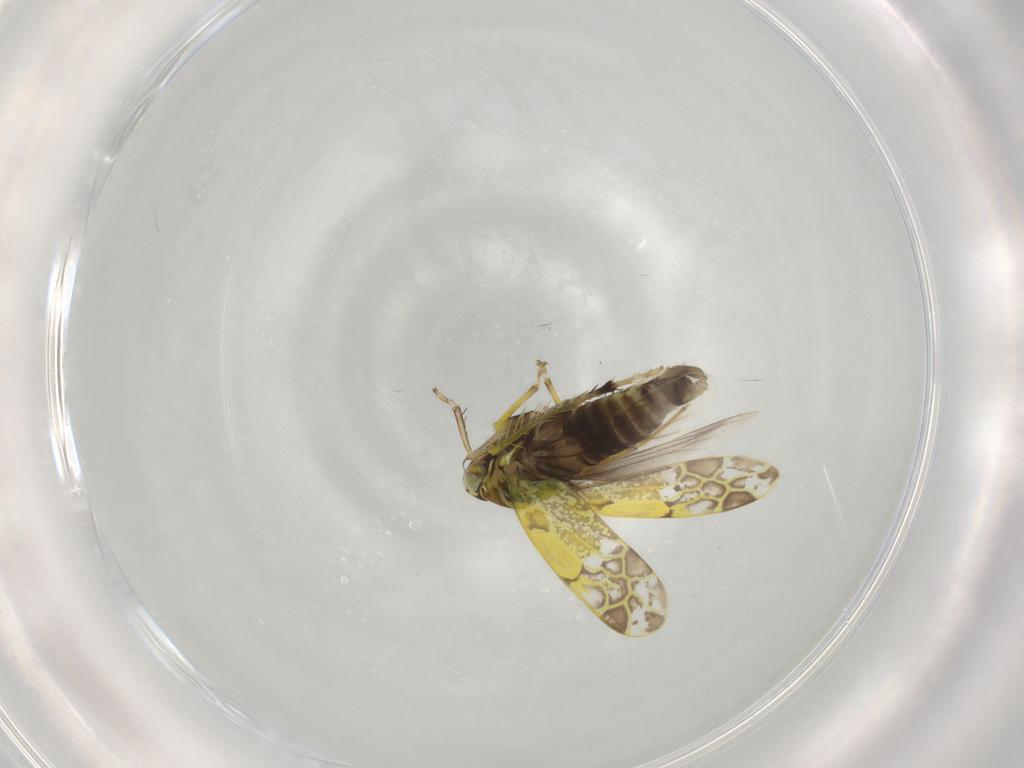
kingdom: Animalia
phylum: Arthropoda
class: Insecta
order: Hemiptera
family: Cicadellidae
